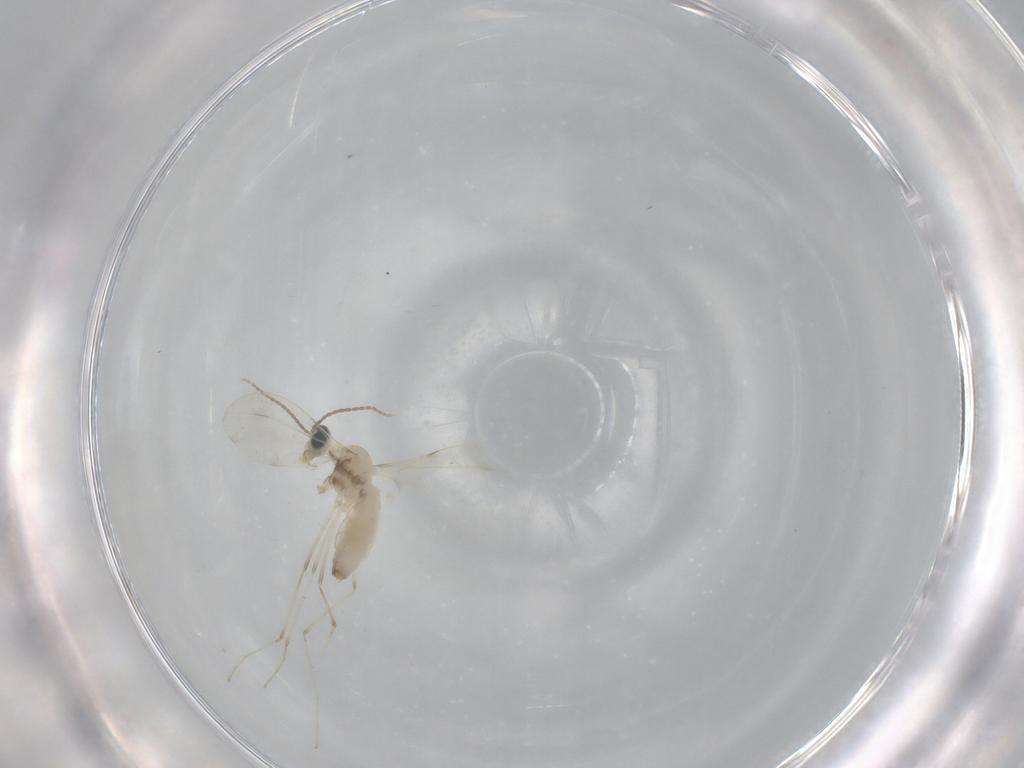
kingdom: Animalia
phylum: Arthropoda
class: Insecta
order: Diptera
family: Cecidomyiidae
